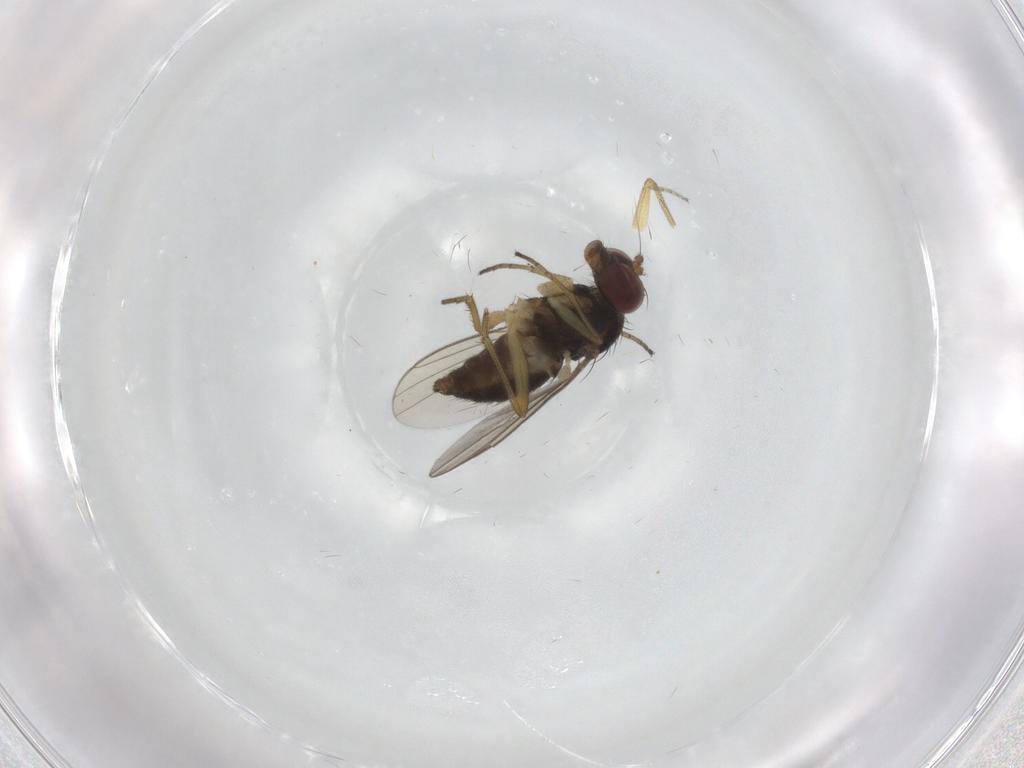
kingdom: Animalia
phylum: Arthropoda
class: Insecta
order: Diptera
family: Dolichopodidae
